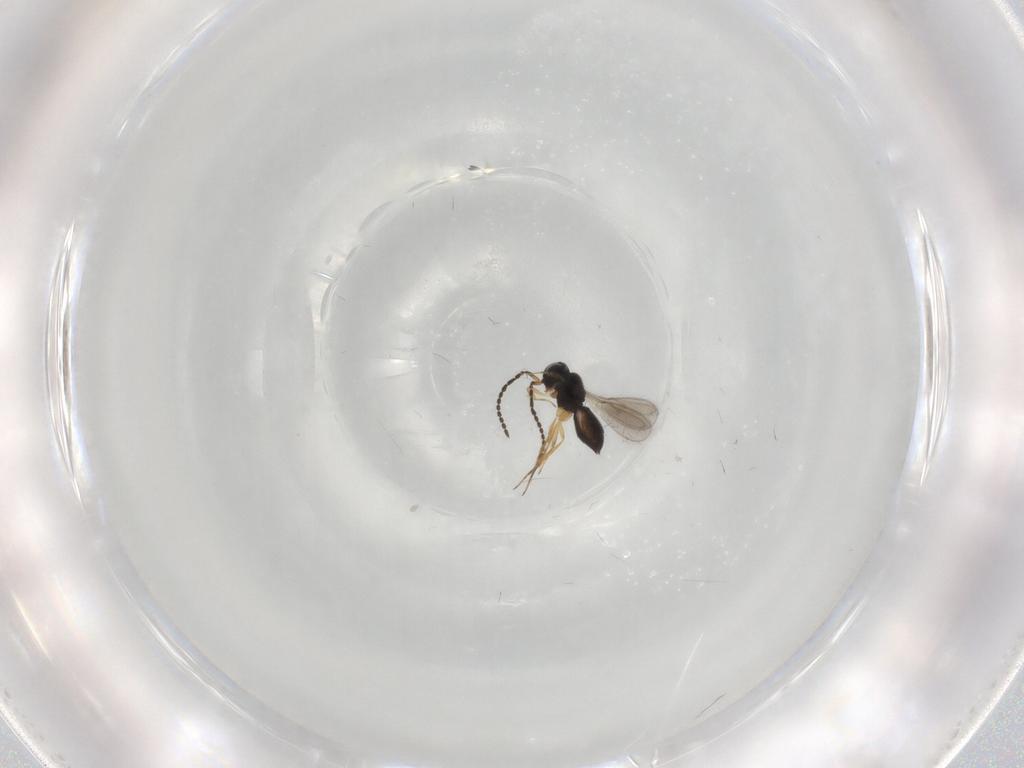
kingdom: Animalia
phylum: Arthropoda
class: Insecta
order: Hymenoptera
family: Scelionidae
